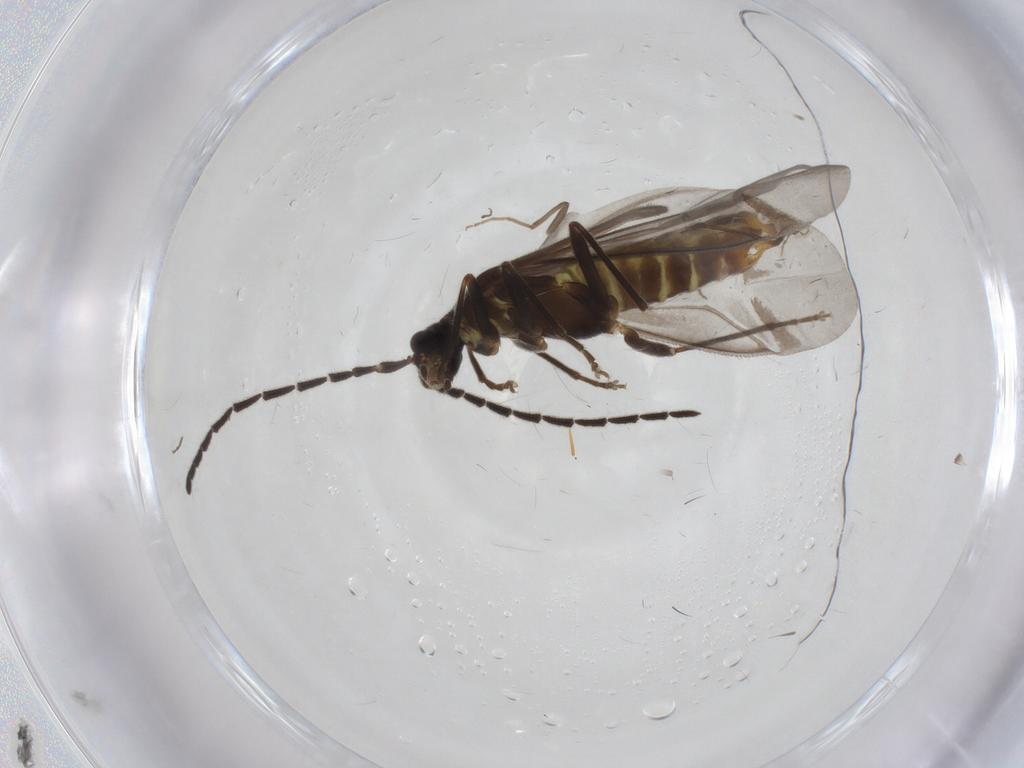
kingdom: Animalia
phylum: Arthropoda
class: Insecta
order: Coleoptera
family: Cantharidae
